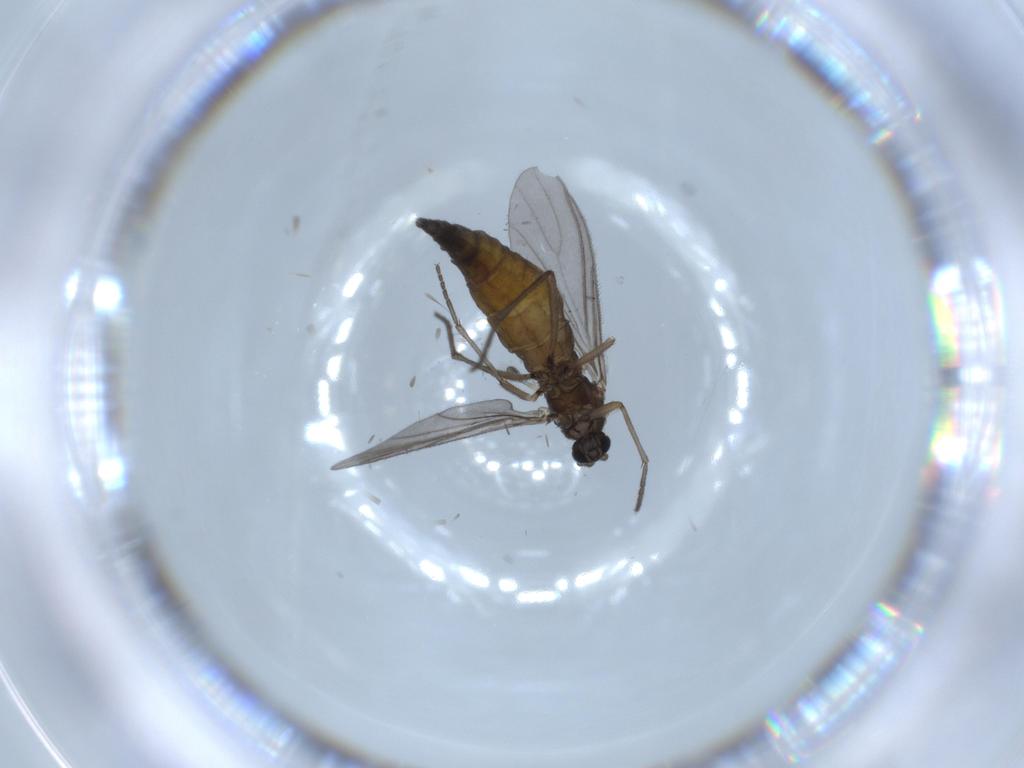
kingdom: Animalia
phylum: Arthropoda
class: Insecta
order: Diptera
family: Sciaridae
